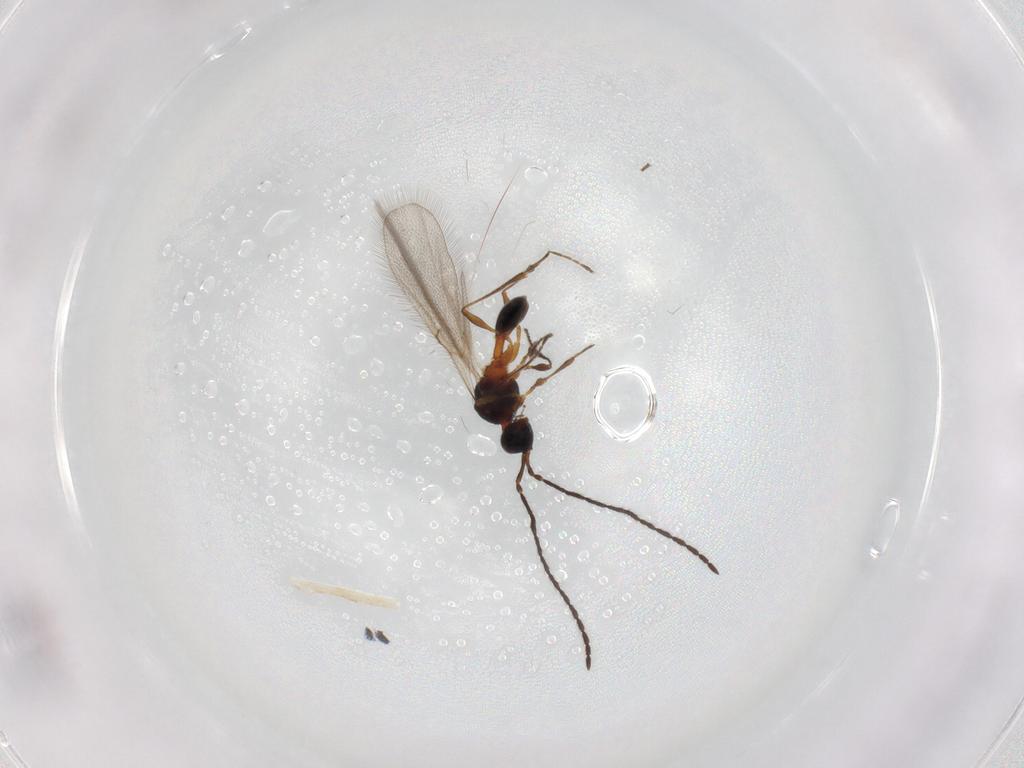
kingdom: Animalia
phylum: Arthropoda
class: Insecta
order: Hymenoptera
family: Diapriidae
